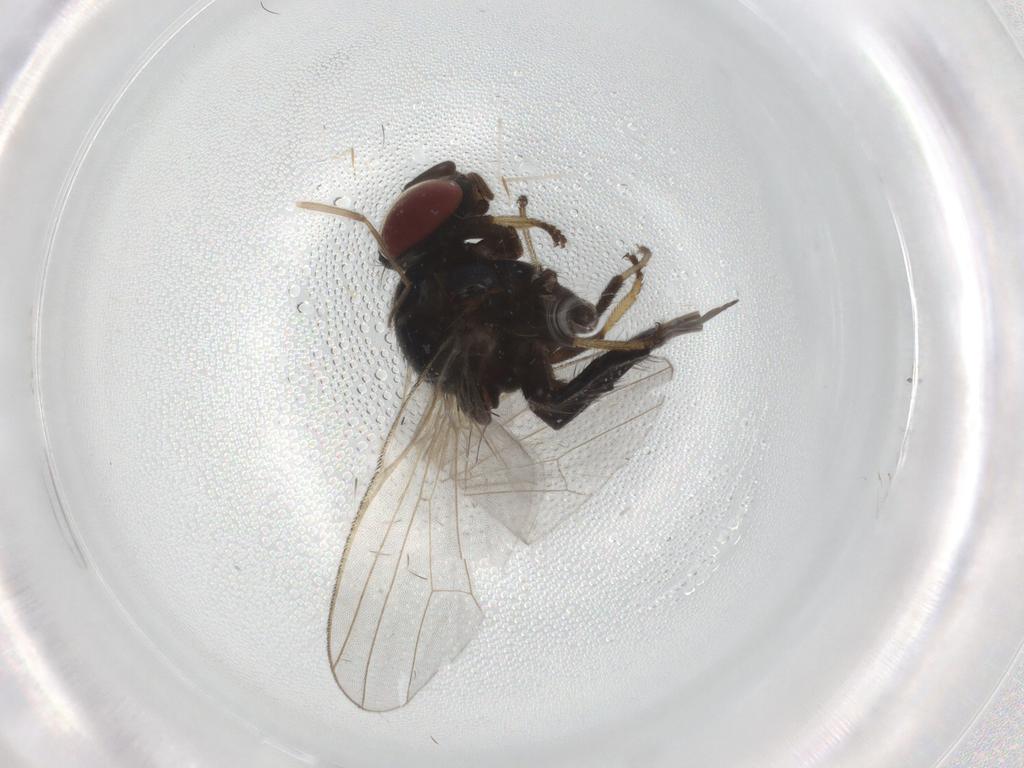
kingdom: Animalia
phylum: Arthropoda
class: Insecta
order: Diptera
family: Chironomidae
